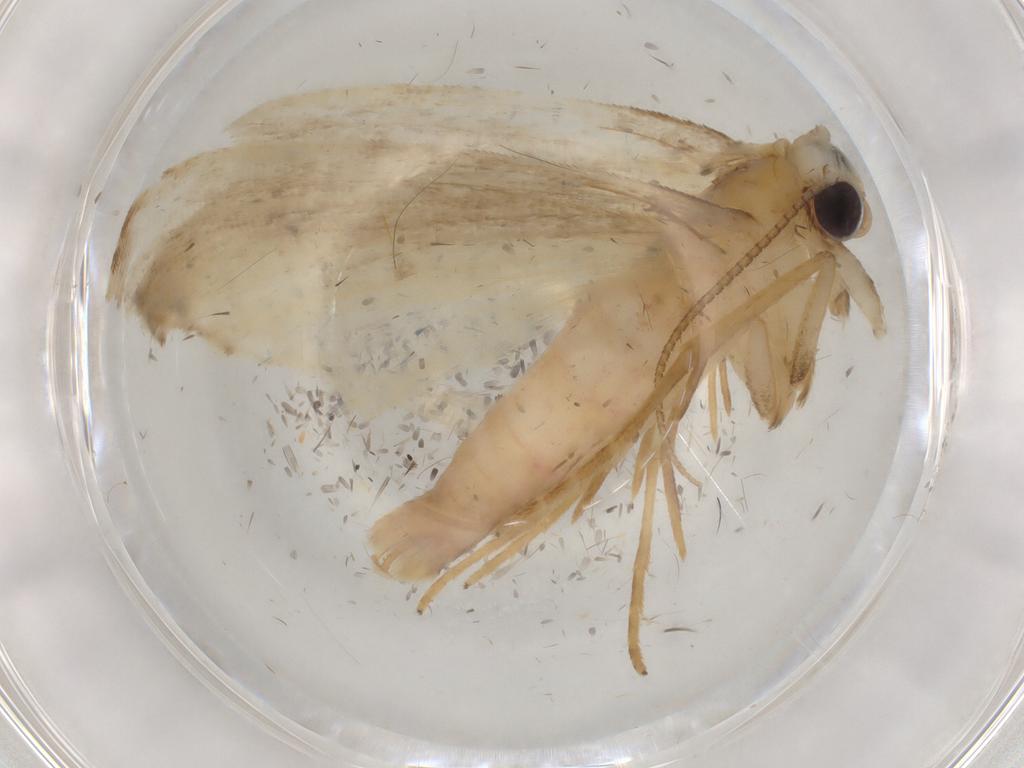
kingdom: Animalia
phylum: Arthropoda
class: Insecta
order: Lepidoptera
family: Noctuidae
